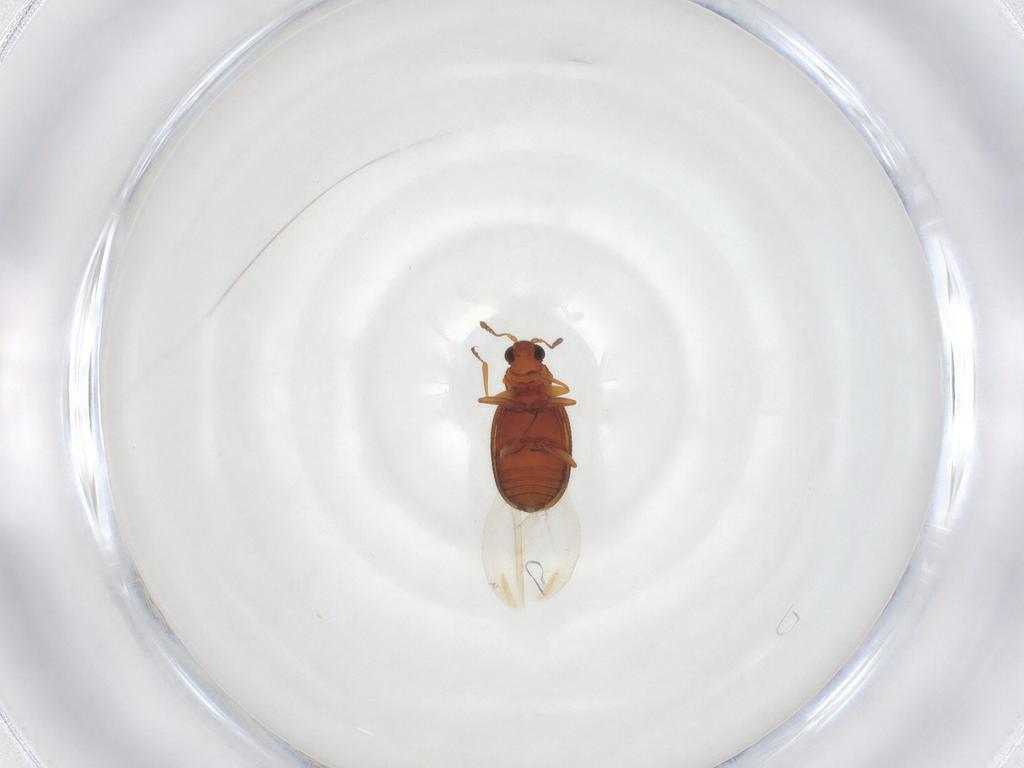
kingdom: Animalia
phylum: Arthropoda
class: Insecta
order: Coleoptera
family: Latridiidae
